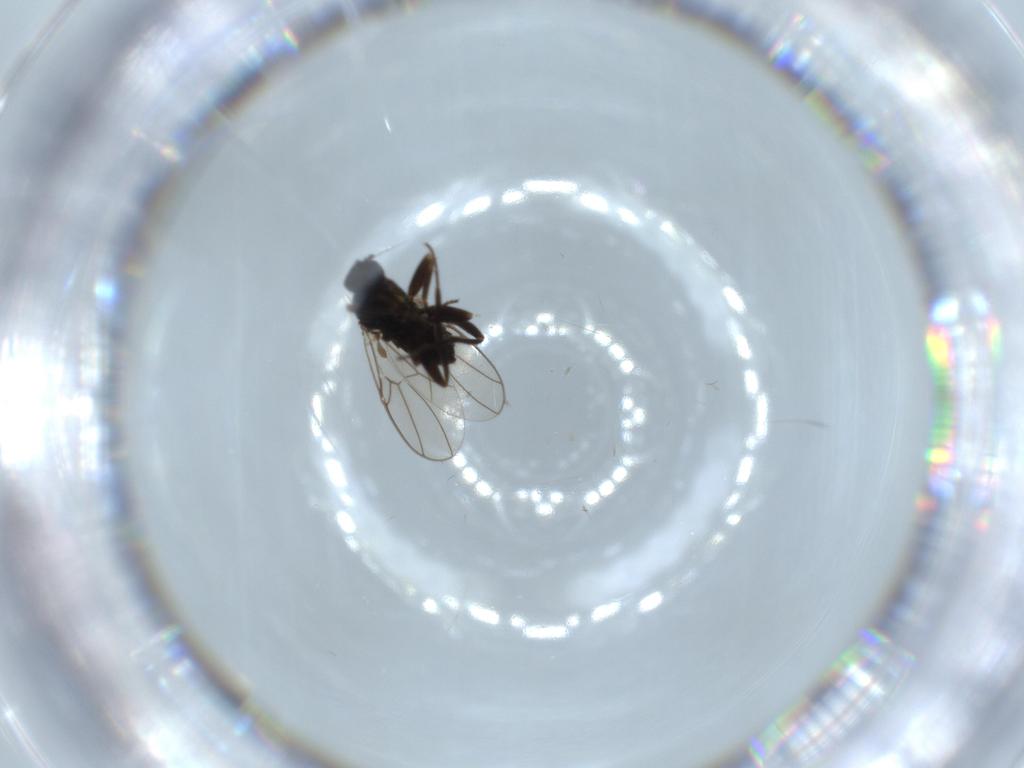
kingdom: Animalia
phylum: Arthropoda
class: Insecta
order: Diptera
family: Hybotidae
